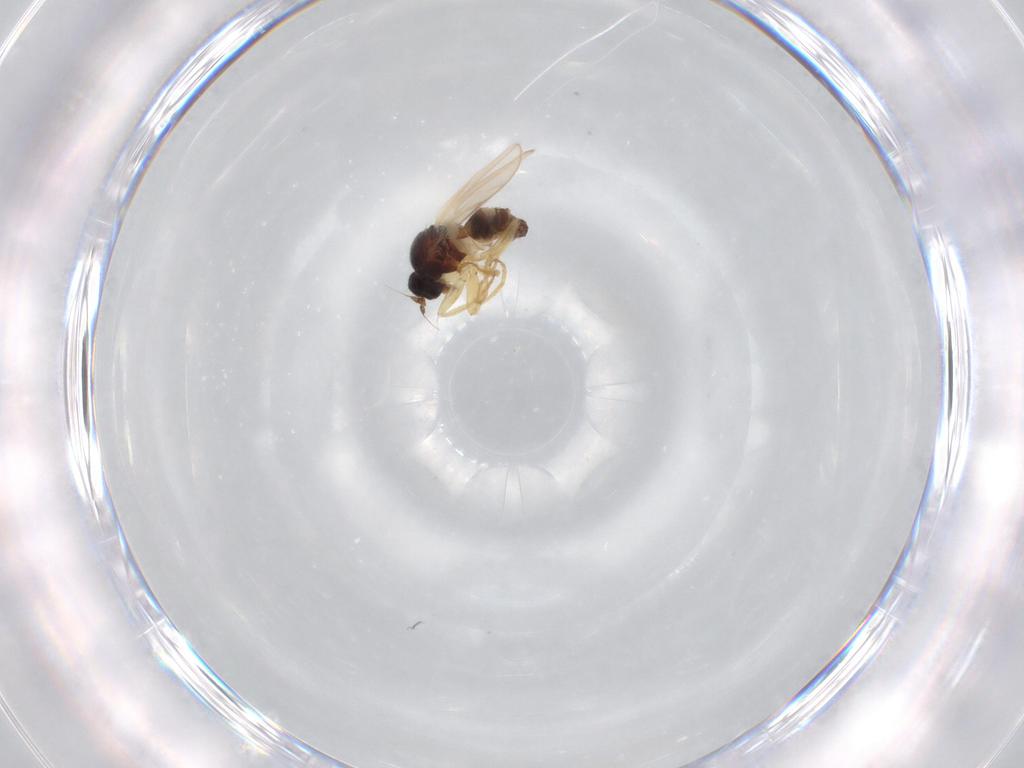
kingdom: Animalia
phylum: Arthropoda
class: Insecta
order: Diptera
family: Hybotidae
